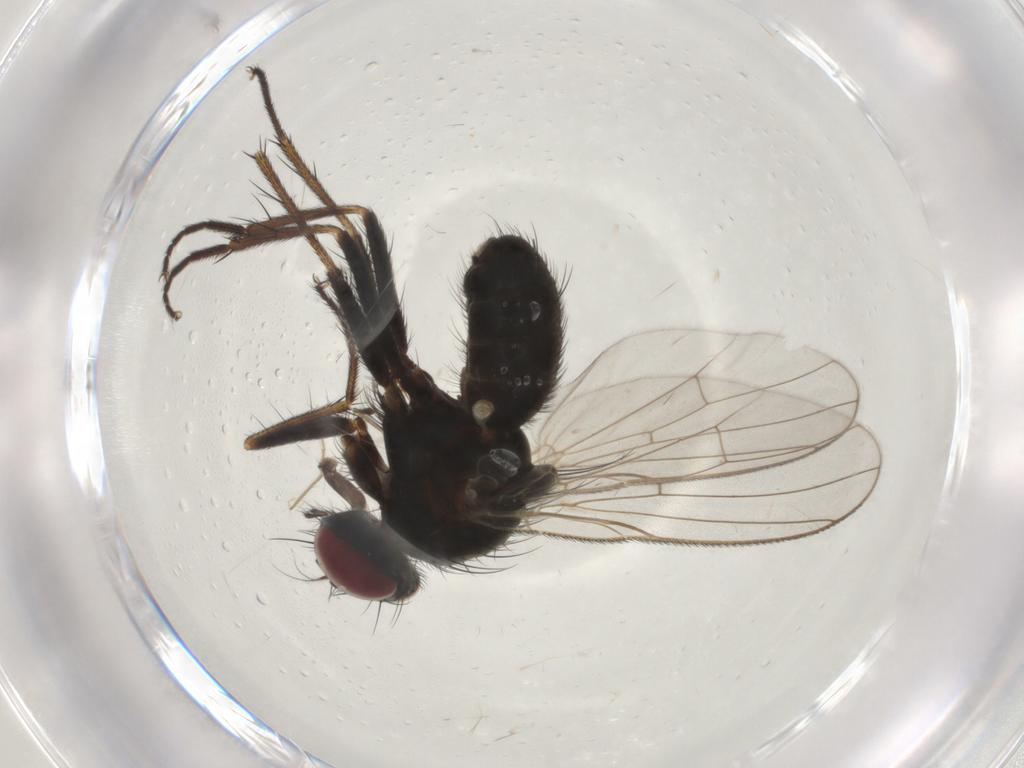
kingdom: Animalia
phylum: Arthropoda
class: Insecta
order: Diptera
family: Muscidae
